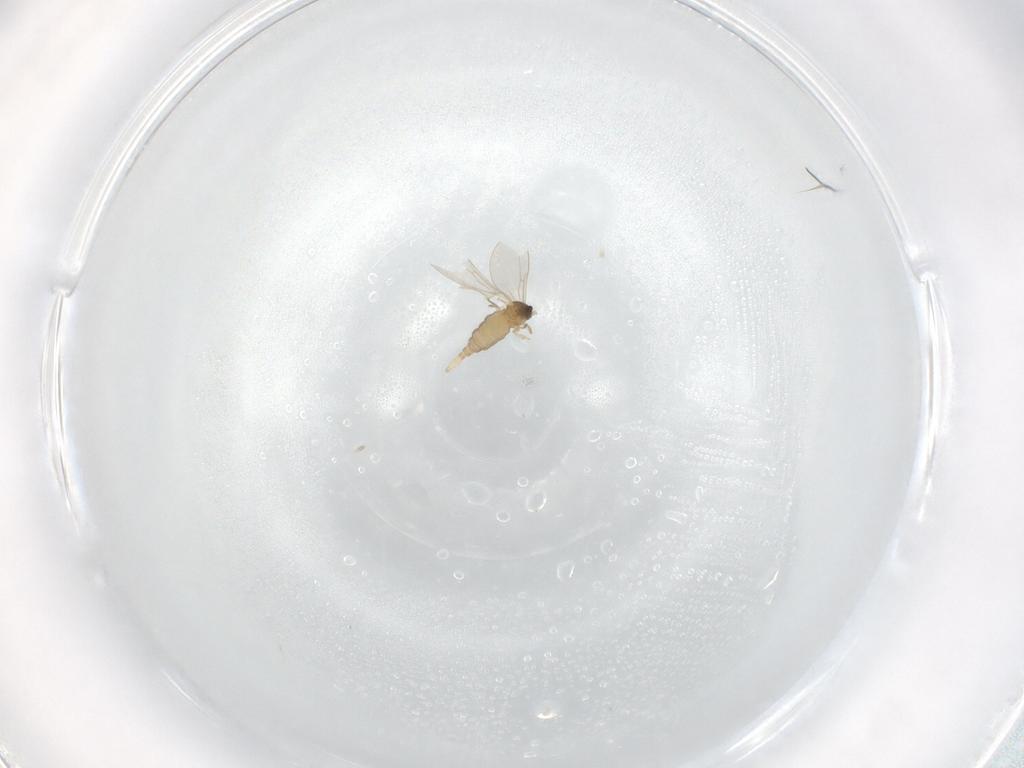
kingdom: Animalia
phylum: Arthropoda
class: Insecta
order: Diptera
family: Cecidomyiidae
